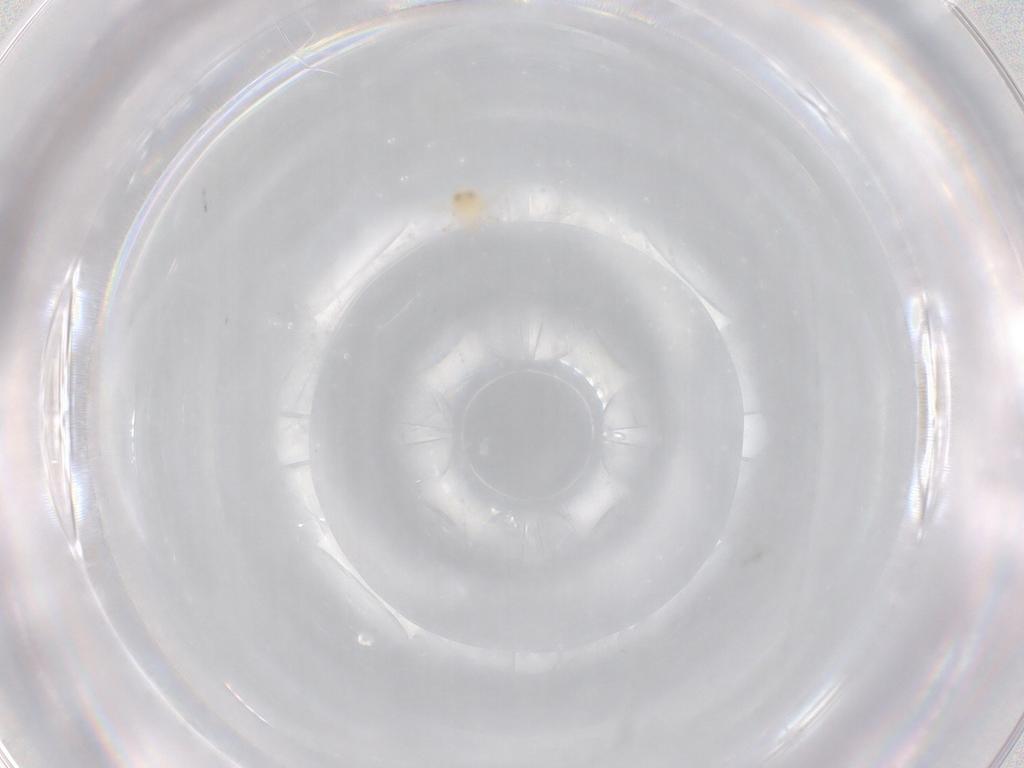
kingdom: Animalia
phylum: Arthropoda
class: Arachnida
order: Trombidiformes
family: Sperchontidae
